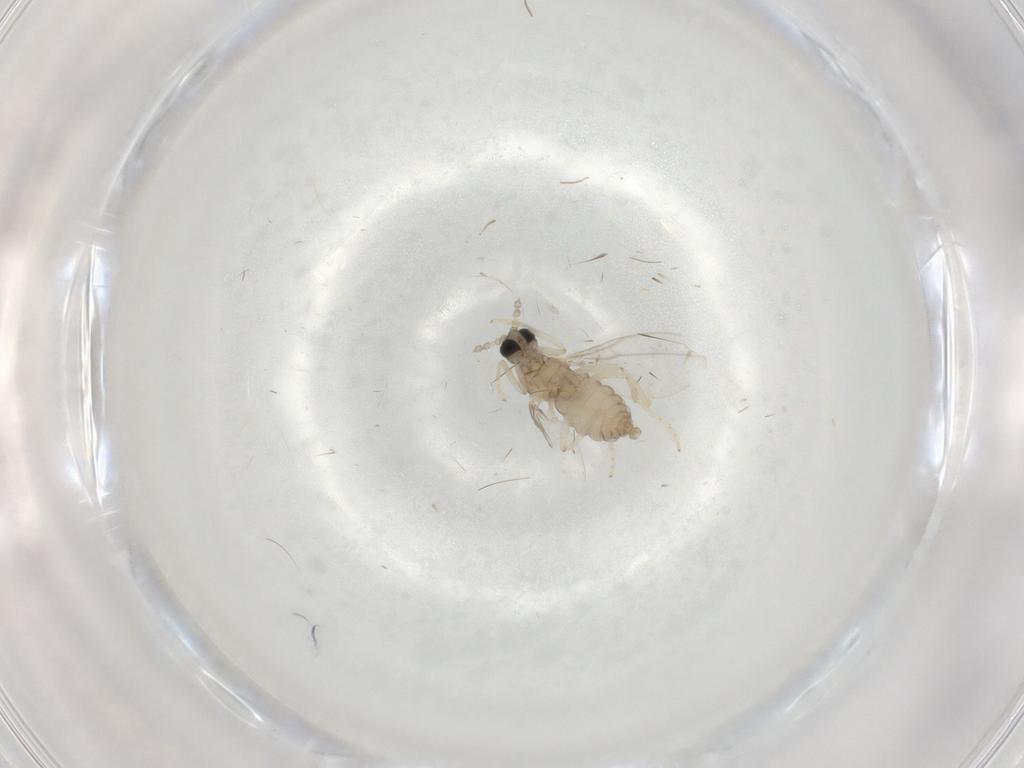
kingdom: Animalia
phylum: Arthropoda
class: Insecta
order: Diptera
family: Cecidomyiidae
